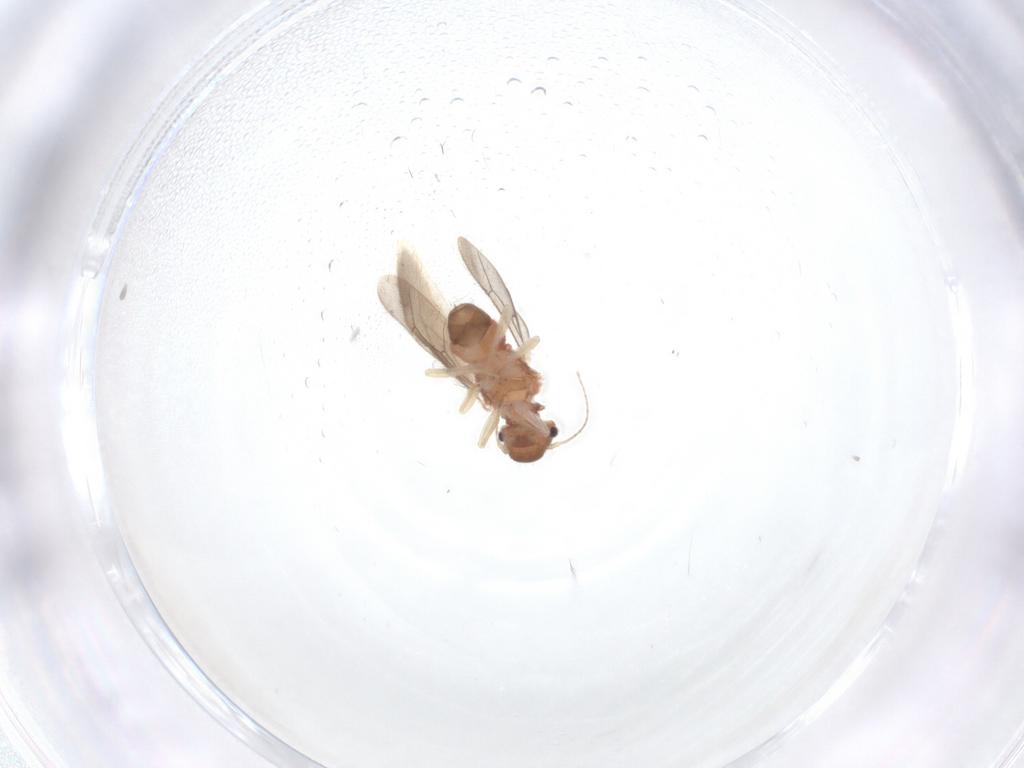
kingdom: Animalia
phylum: Arthropoda
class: Insecta
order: Psocodea
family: Archipsocidae
